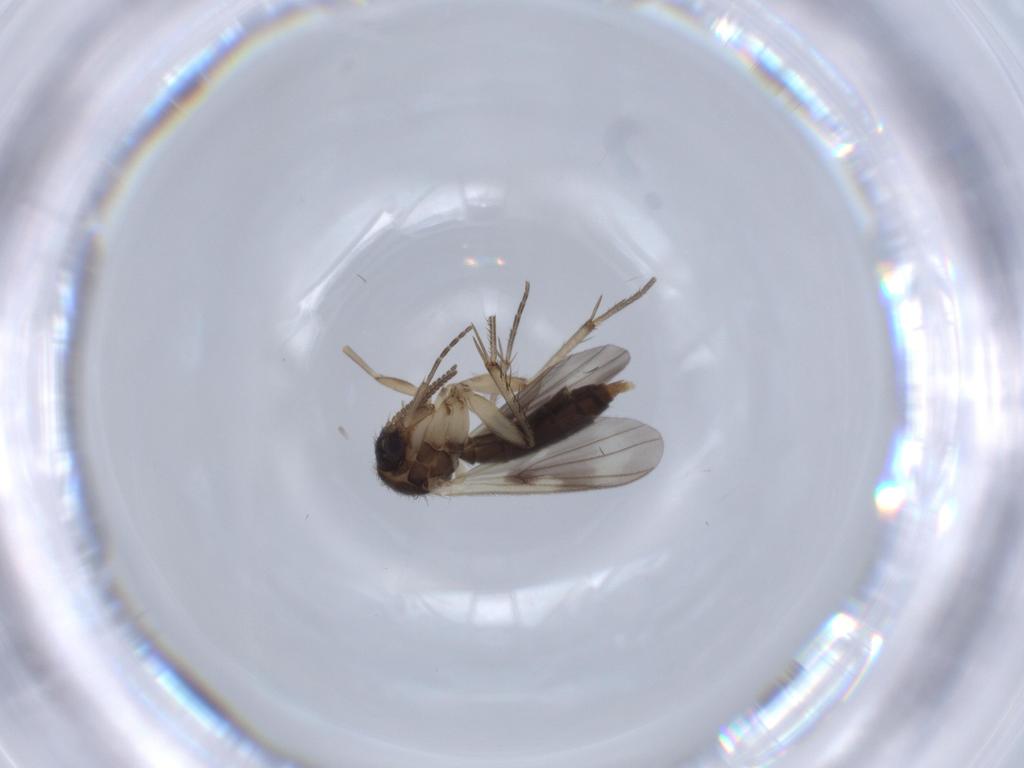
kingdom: Animalia
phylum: Arthropoda
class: Insecta
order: Diptera
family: Mycetophilidae
